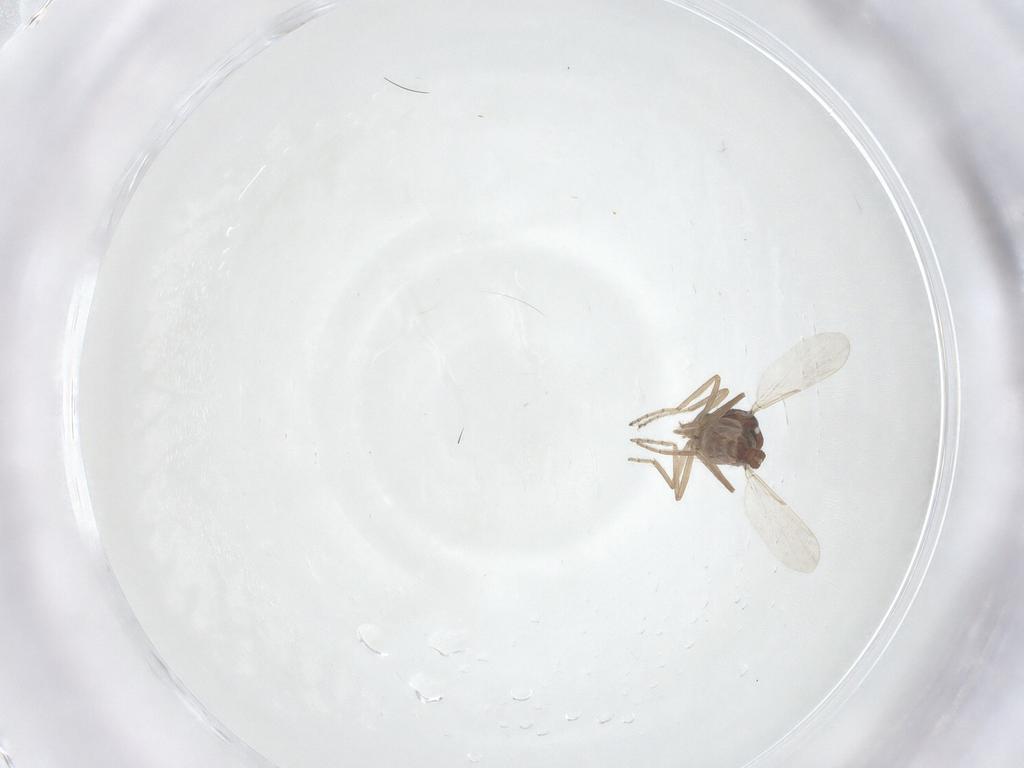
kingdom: Animalia
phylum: Arthropoda
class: Insecta
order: Diptera
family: Ceratopogonidae
